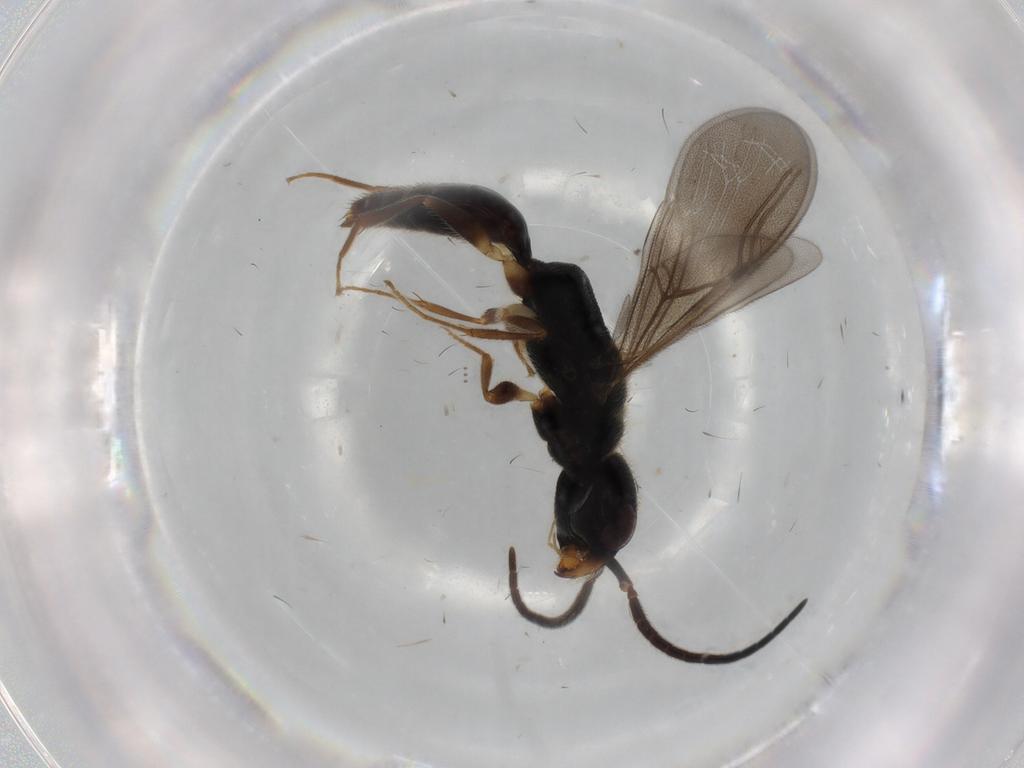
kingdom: Animalia
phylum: Arthropoda
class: Insecta
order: Hymenoptera
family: Bethylidae
